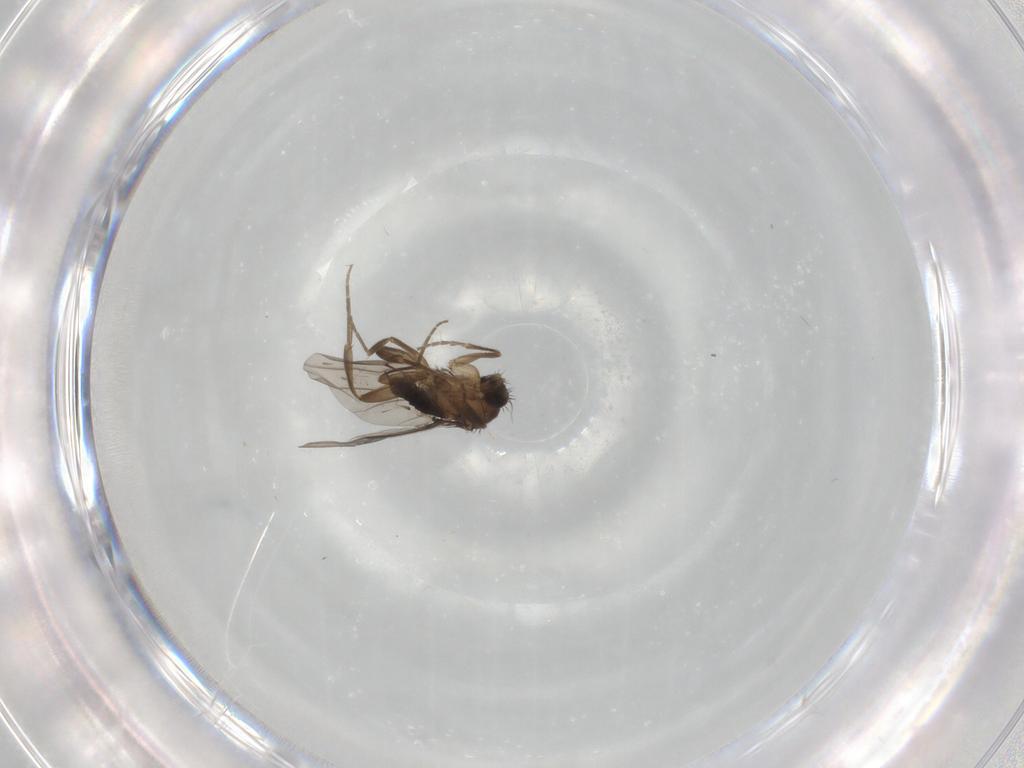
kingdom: Animalia
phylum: Arthropoda
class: Insecta
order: Diptera
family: Phoridae
